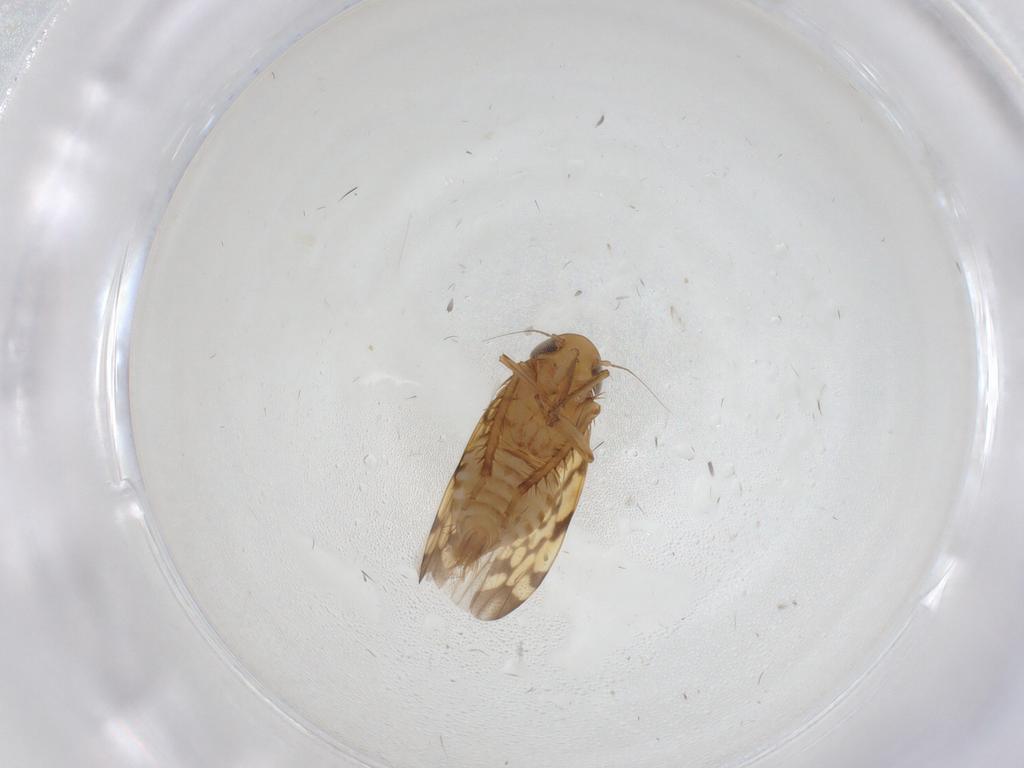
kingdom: Animalia
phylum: Arthropoda
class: Insecta
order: Hemiptera
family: Cicadellidae
